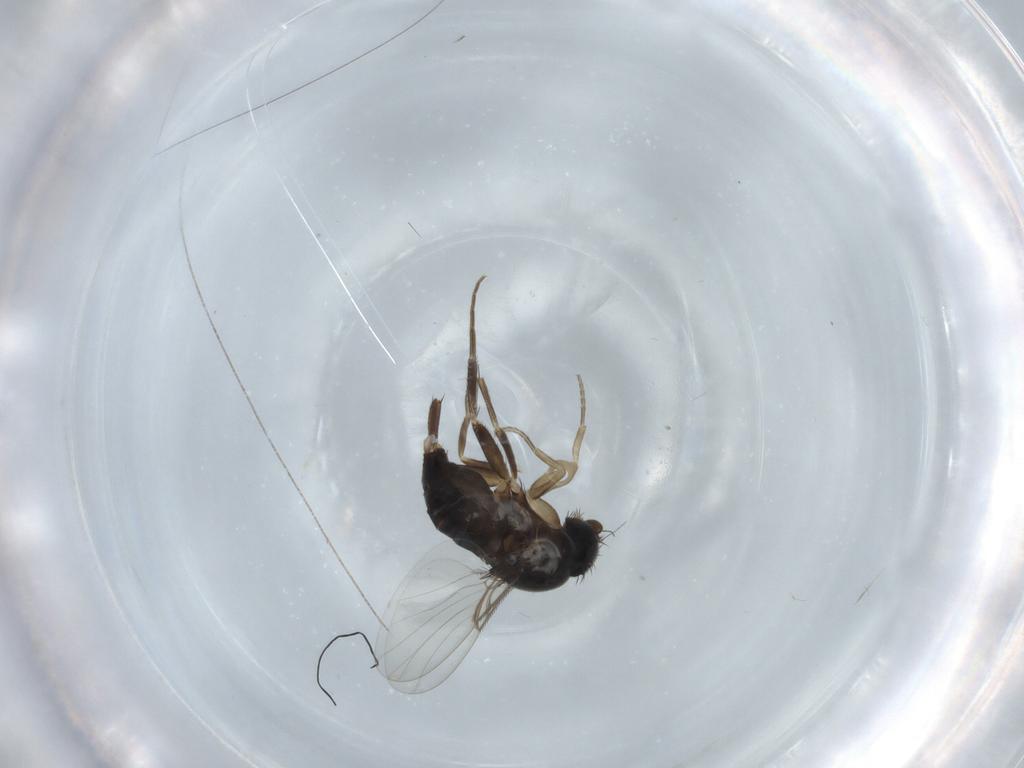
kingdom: Animalia
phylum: Arthropoda
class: Insecta
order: Diptera
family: Phoridae
